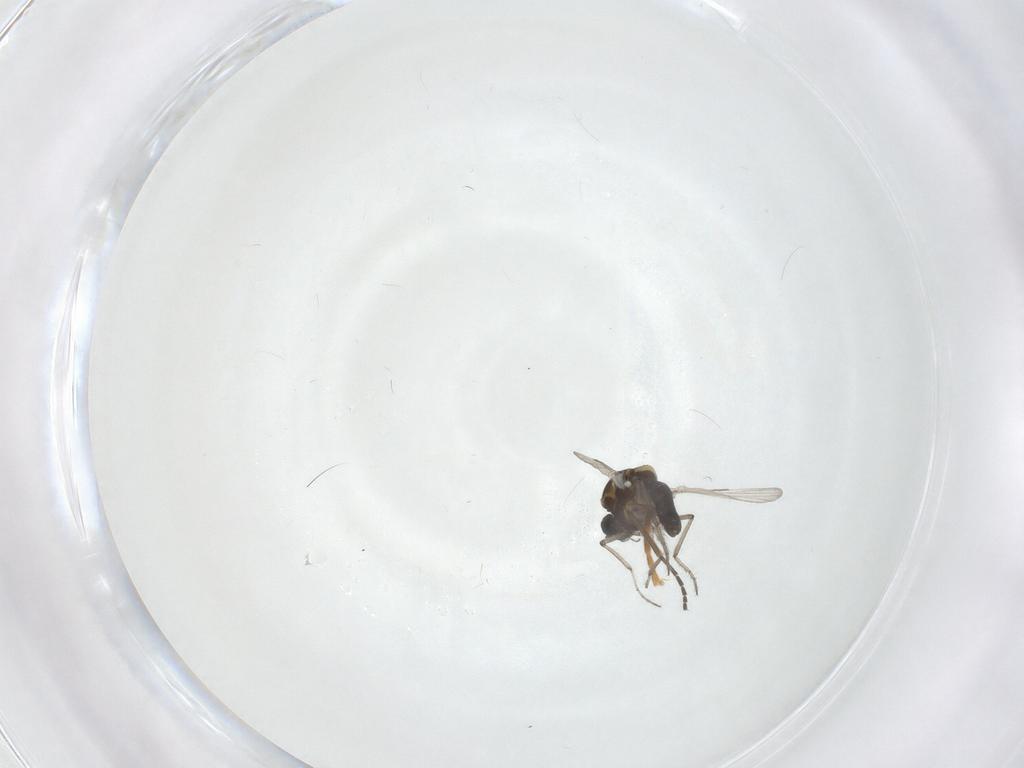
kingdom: Animalia
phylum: Arthropoda
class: Insecta
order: Diptera
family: Ceratopogonidae
